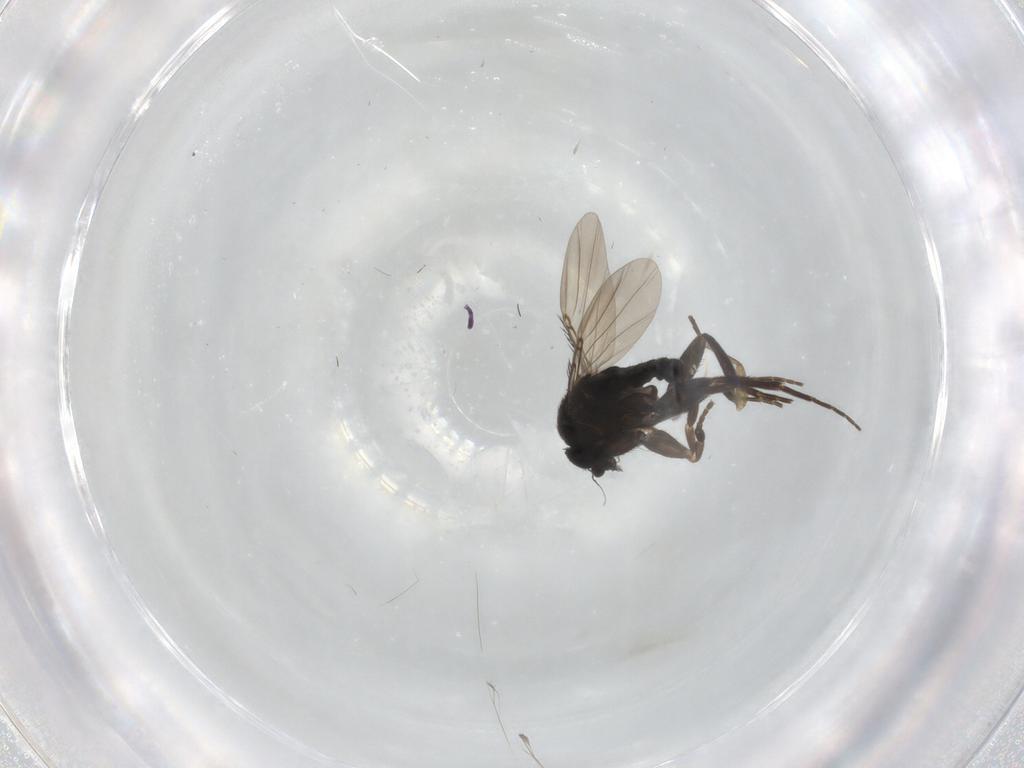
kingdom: Animalia
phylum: Arthropoda
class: Insecta
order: Diptera
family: Phoridae
